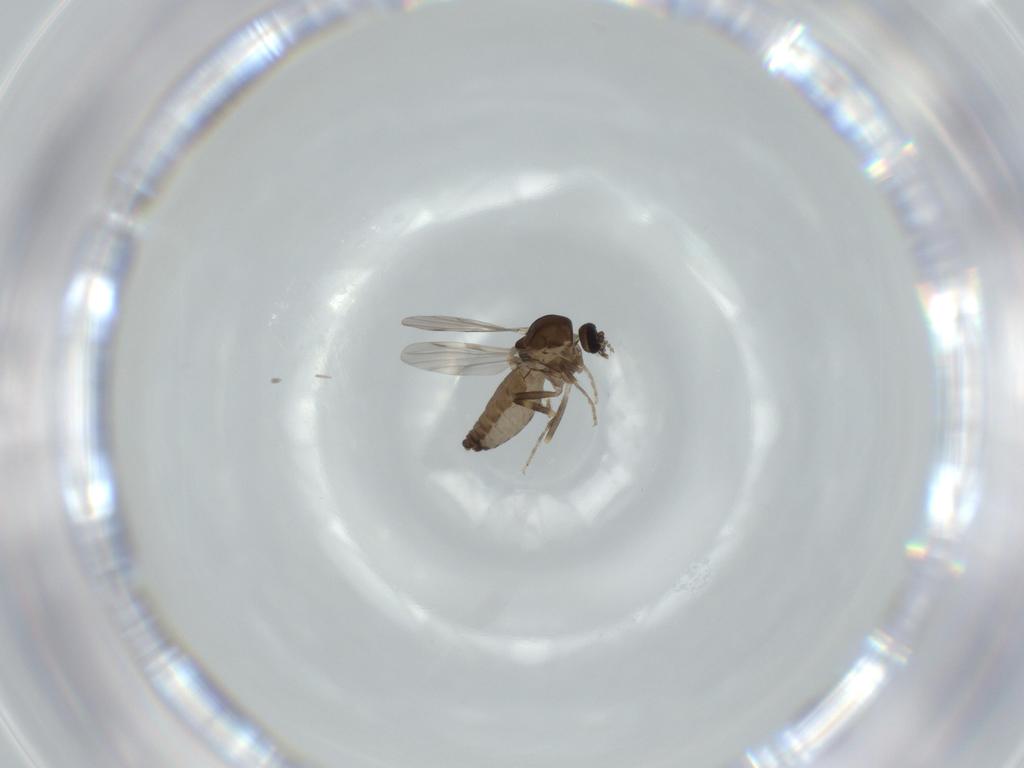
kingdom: Animalia
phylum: Arthropoda
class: Insecta
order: Diptera
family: Ceratopogonidae
